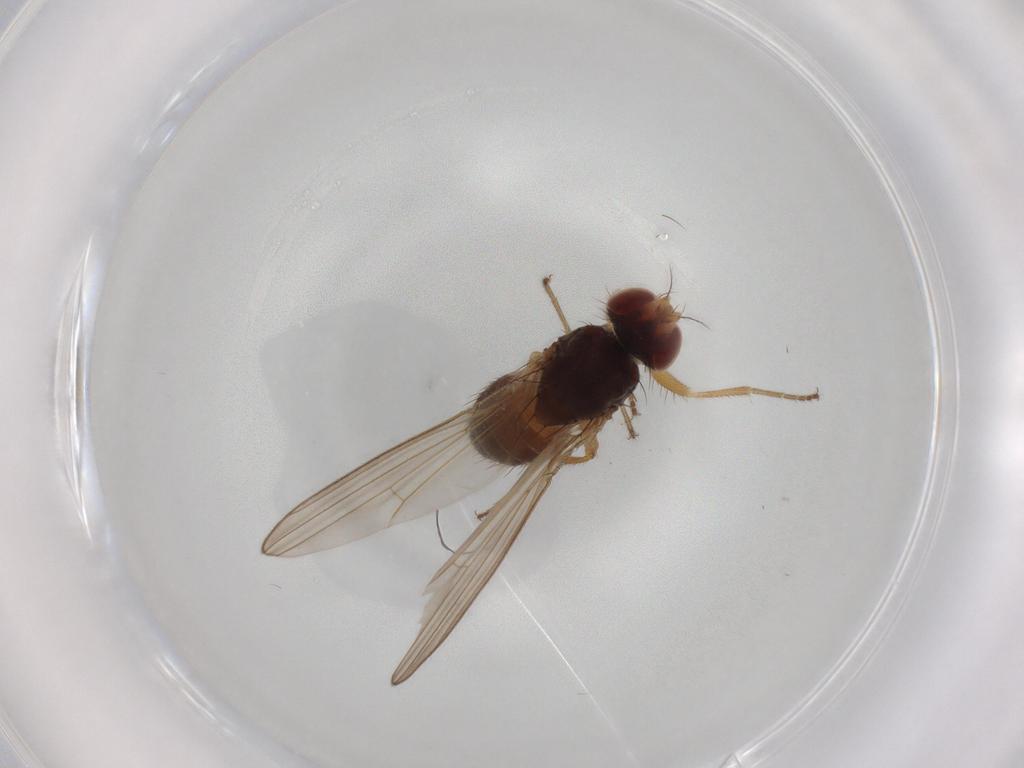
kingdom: Animalia
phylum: Arthropoda
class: Insecta
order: Diptera
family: Drosophilidae
